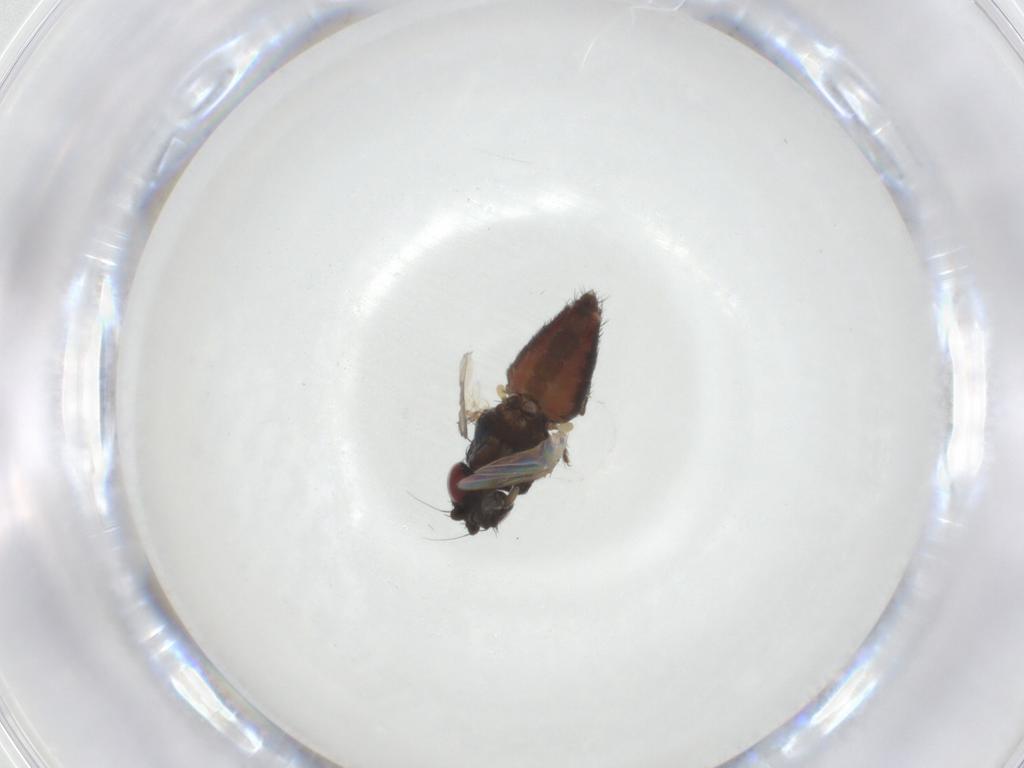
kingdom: Animalia
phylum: Arthropoda
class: Insecta
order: Diptera
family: Milichiidae
